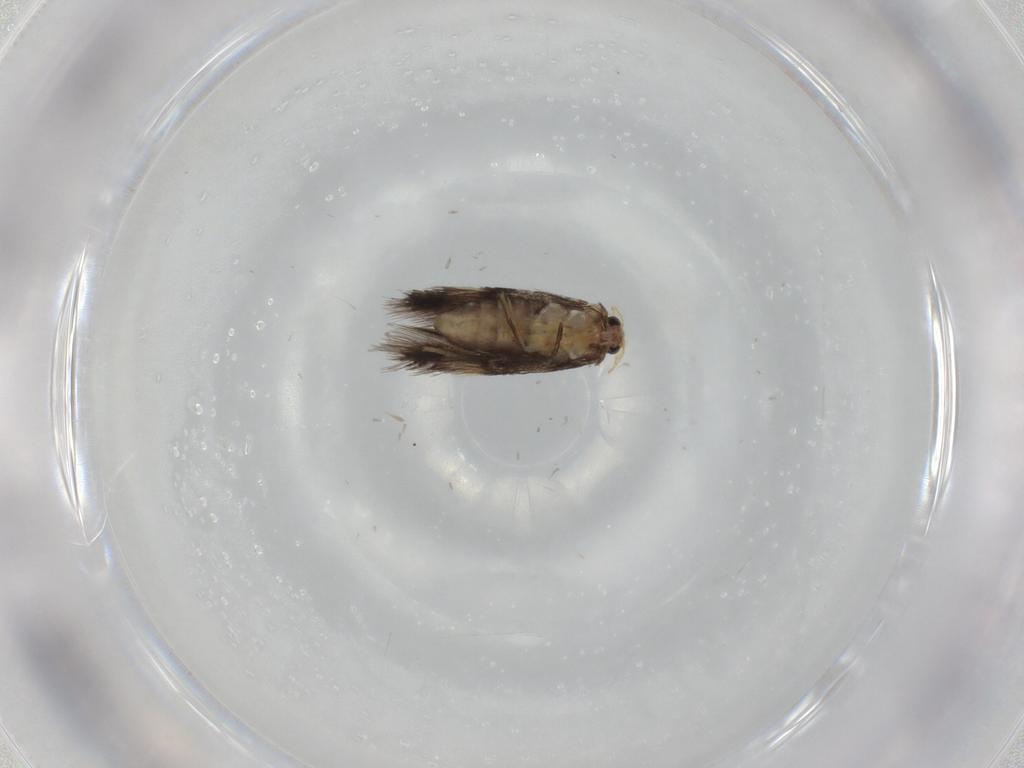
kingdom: Animalia
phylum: Arthropoda
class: Insecta
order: Lepidoptera
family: Nepticulidae
